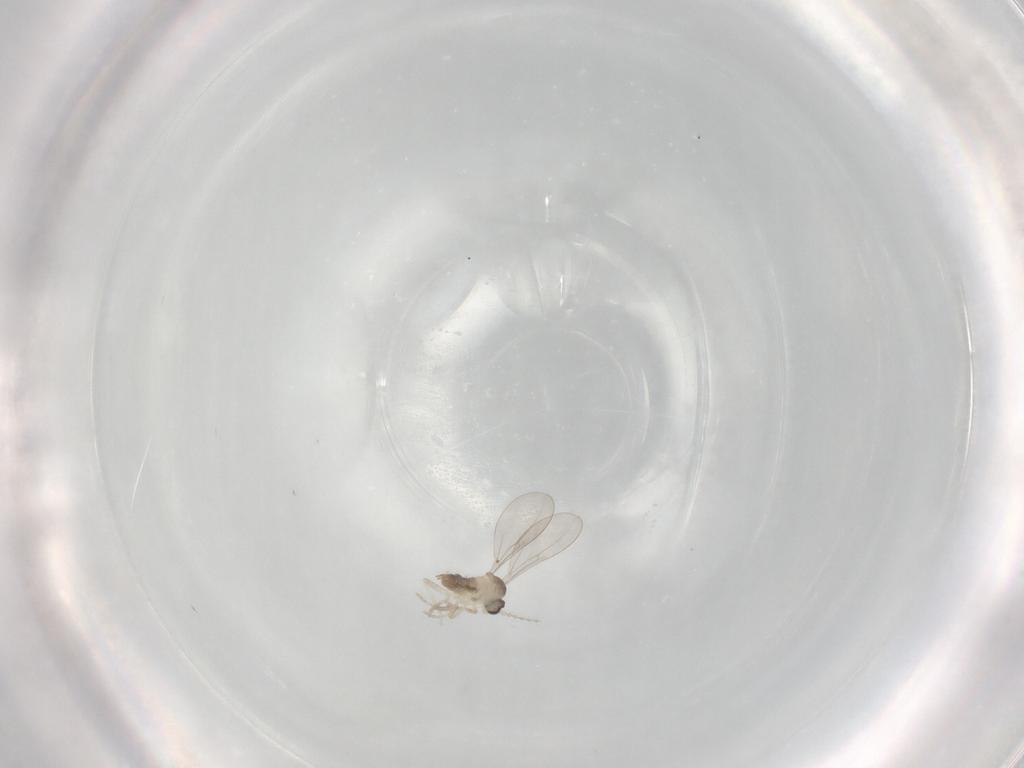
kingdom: Animalia
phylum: Arthropoda
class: Insecta
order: Diptera
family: Cecidomyiidae
